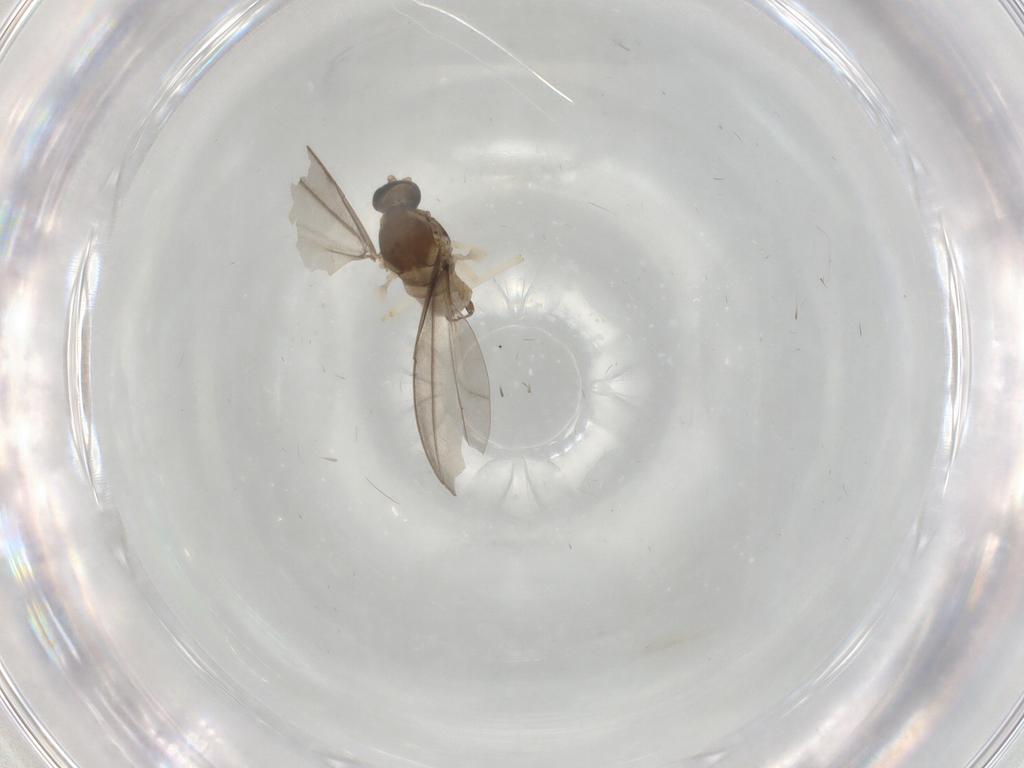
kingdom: Animalia
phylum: Arthropoda
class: Insecta
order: Diptera
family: Cecidomyiidae
